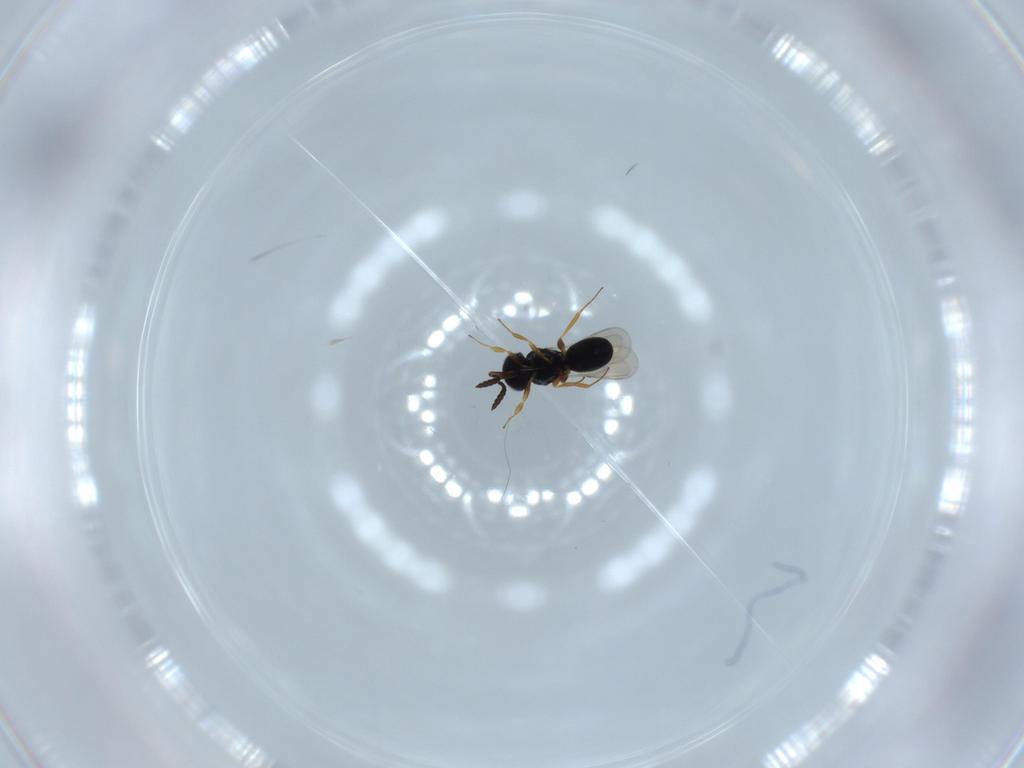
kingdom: Animalia
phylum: Arthropoda
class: Insecta
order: Hymenoptera
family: Scelionidae
